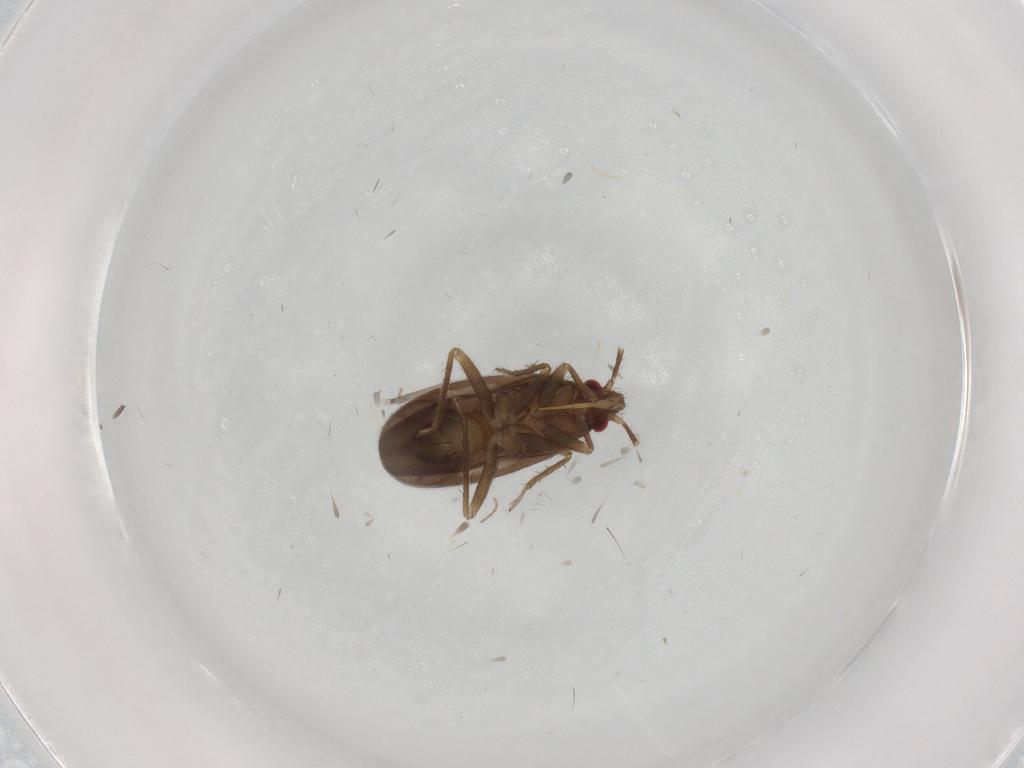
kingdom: Animalia
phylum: Arthropoda
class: Insecta
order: Hemiptera
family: Ceratocombidae
